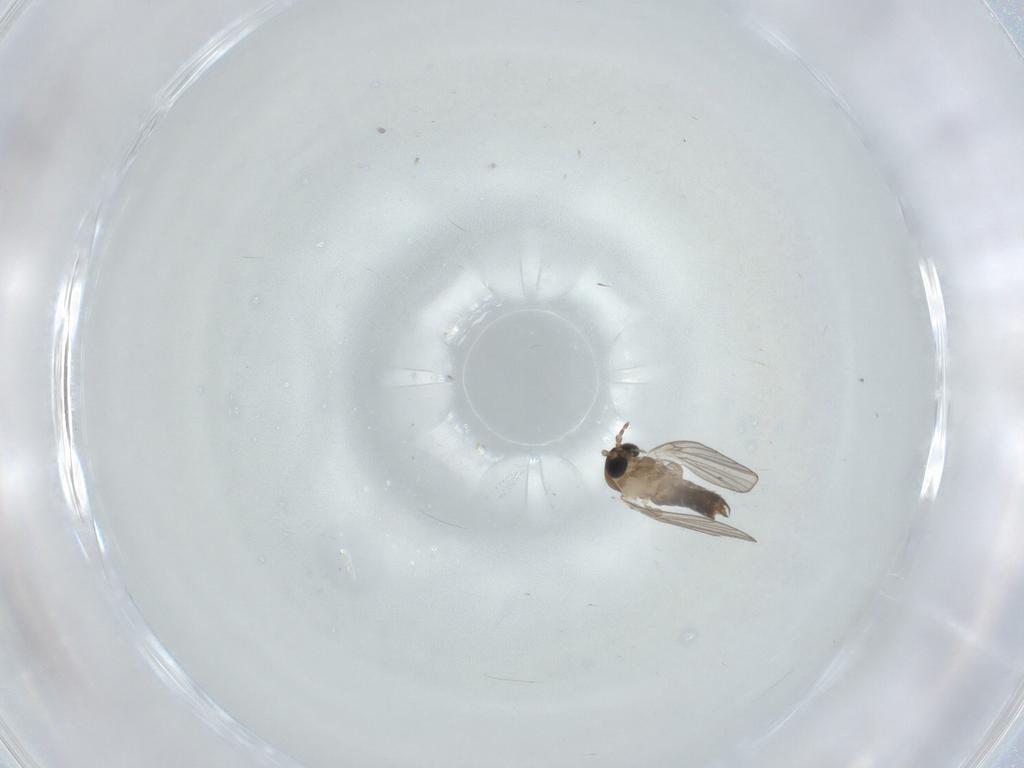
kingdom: Animalia
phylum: Arthropoda
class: Insecta
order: Diptera
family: Psychodidae
